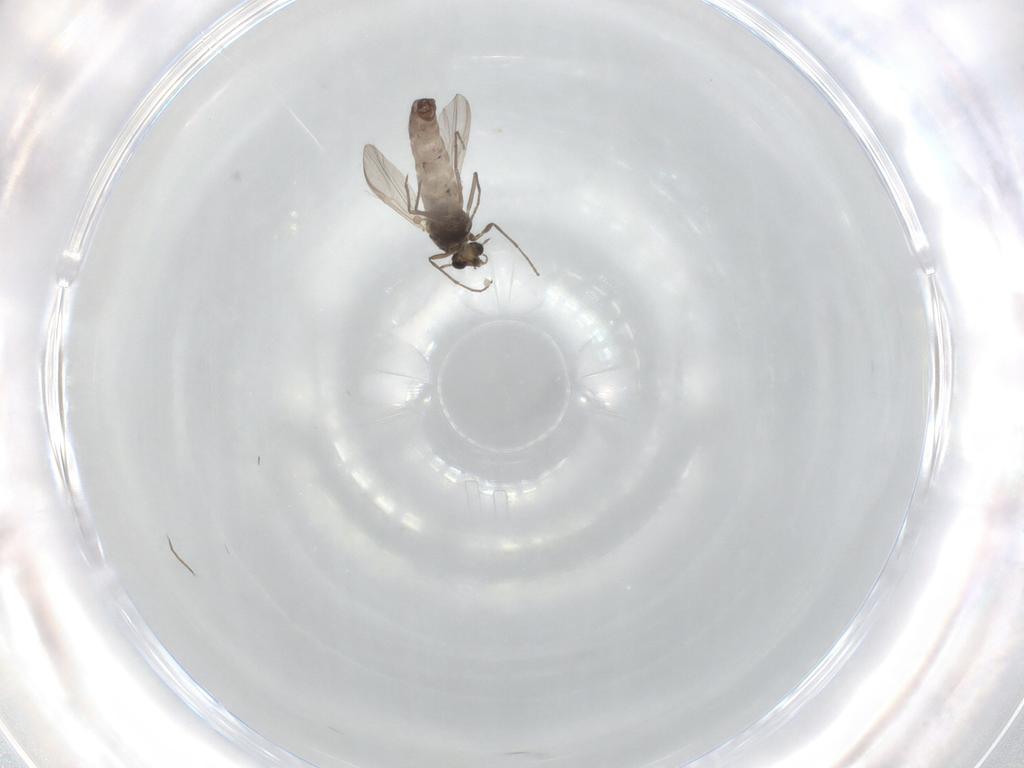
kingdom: Animalia
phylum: Arthropoda
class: Insecta
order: Diptera
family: Chironomidae
